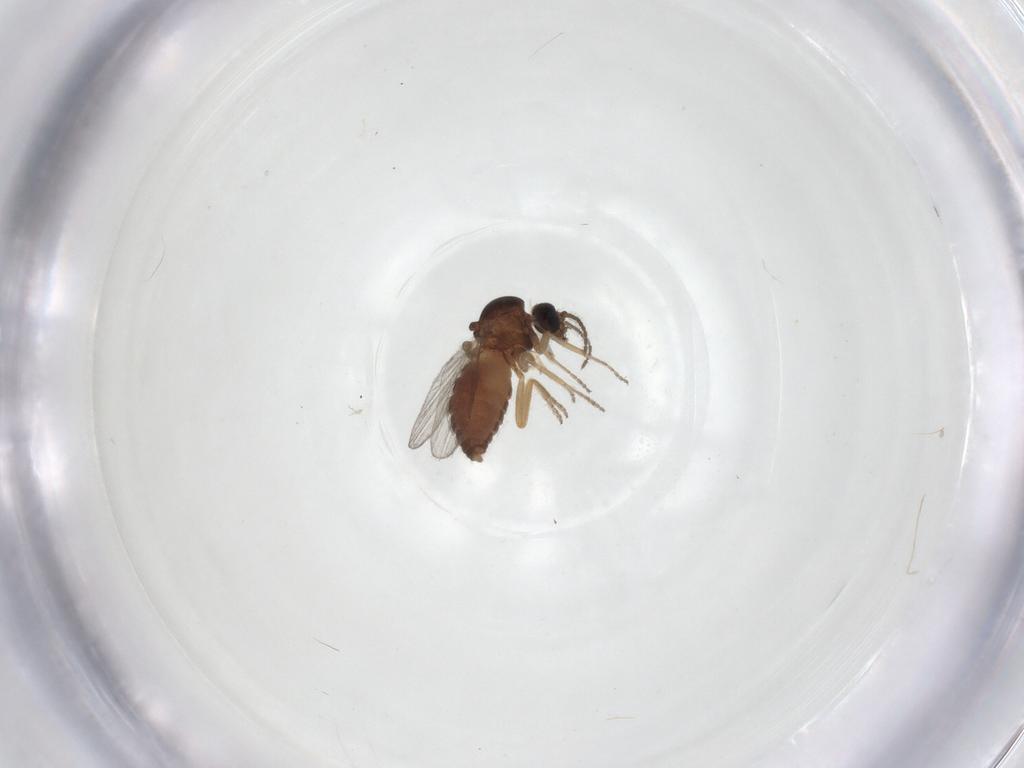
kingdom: Animalia
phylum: Arthropoda
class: Insecta
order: Diptera
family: Ceratopogonidae
